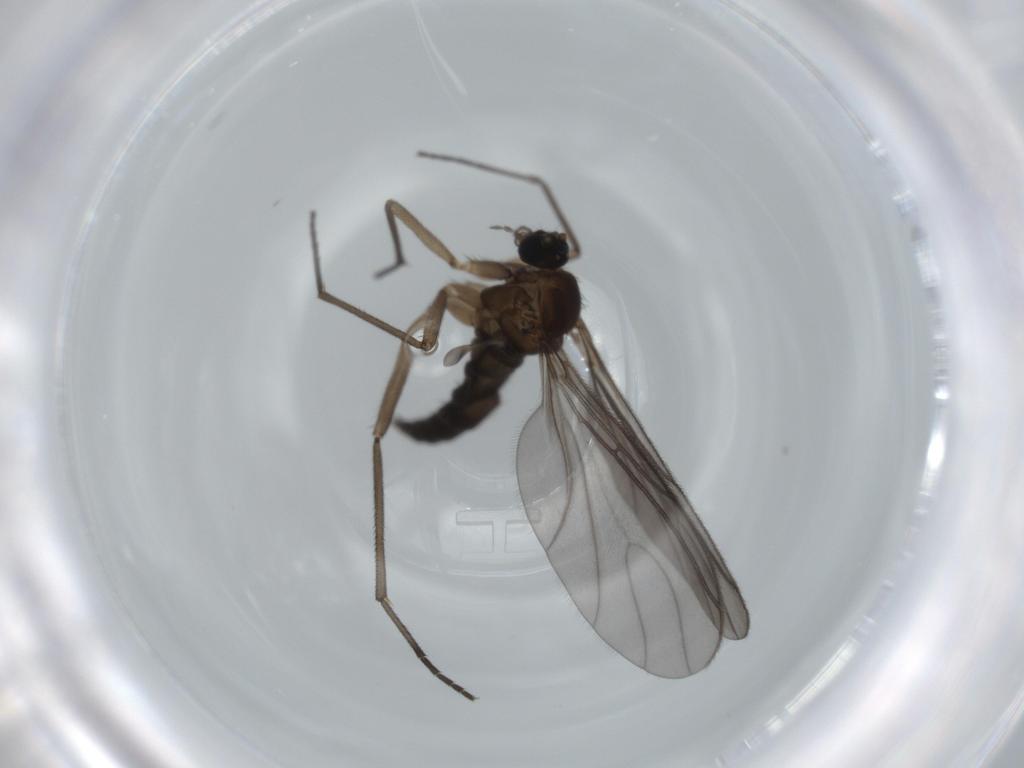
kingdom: Animalia
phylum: Arthropoda
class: Insecta
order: Diptera
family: Sciaridae
